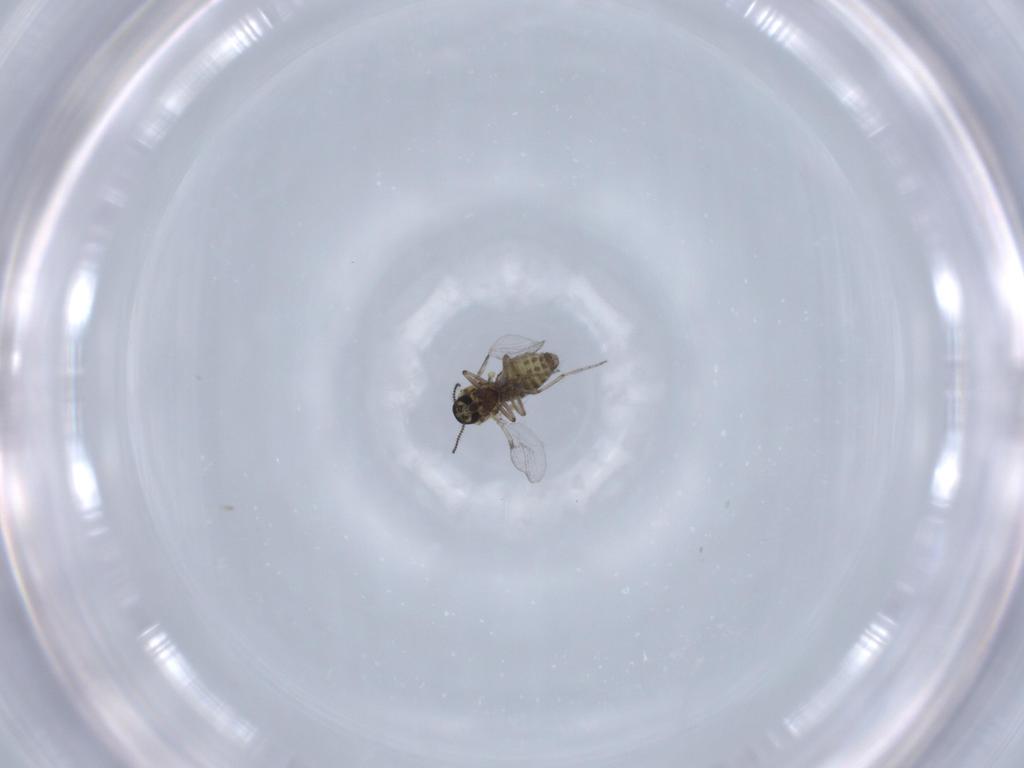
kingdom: Animalia
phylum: Arthropoda
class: Insecta
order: Diptera
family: Ceratopogonidae
